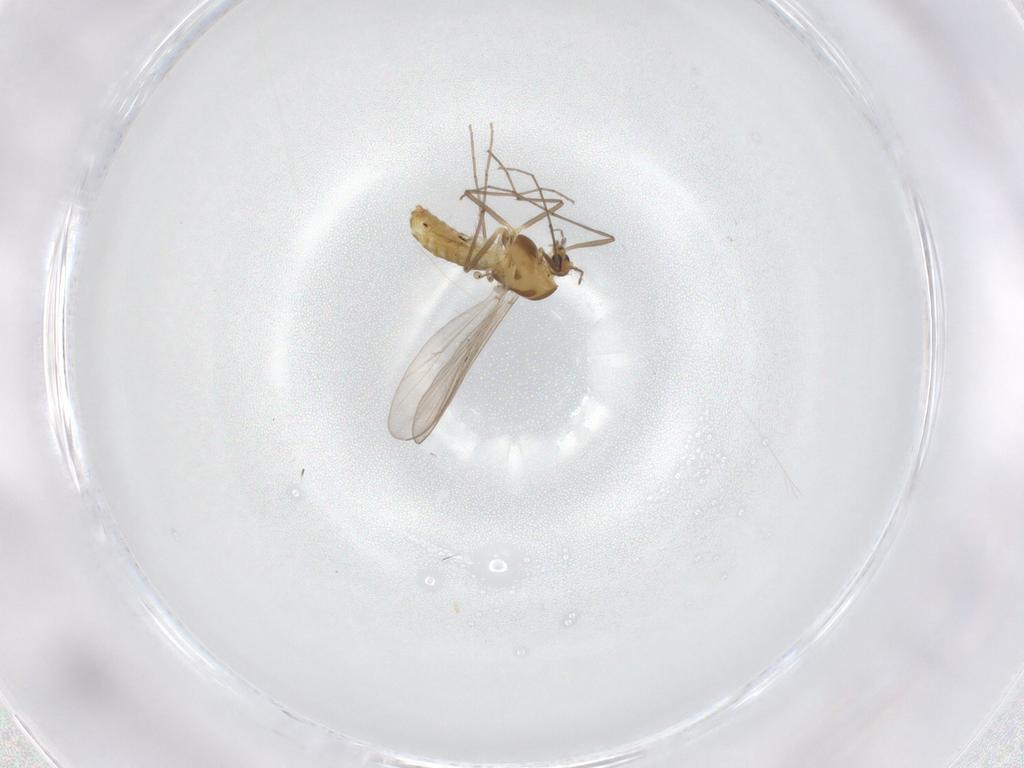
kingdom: Animalia
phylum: Arthropoda
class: Insecta
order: Diptera
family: Chironomidae
